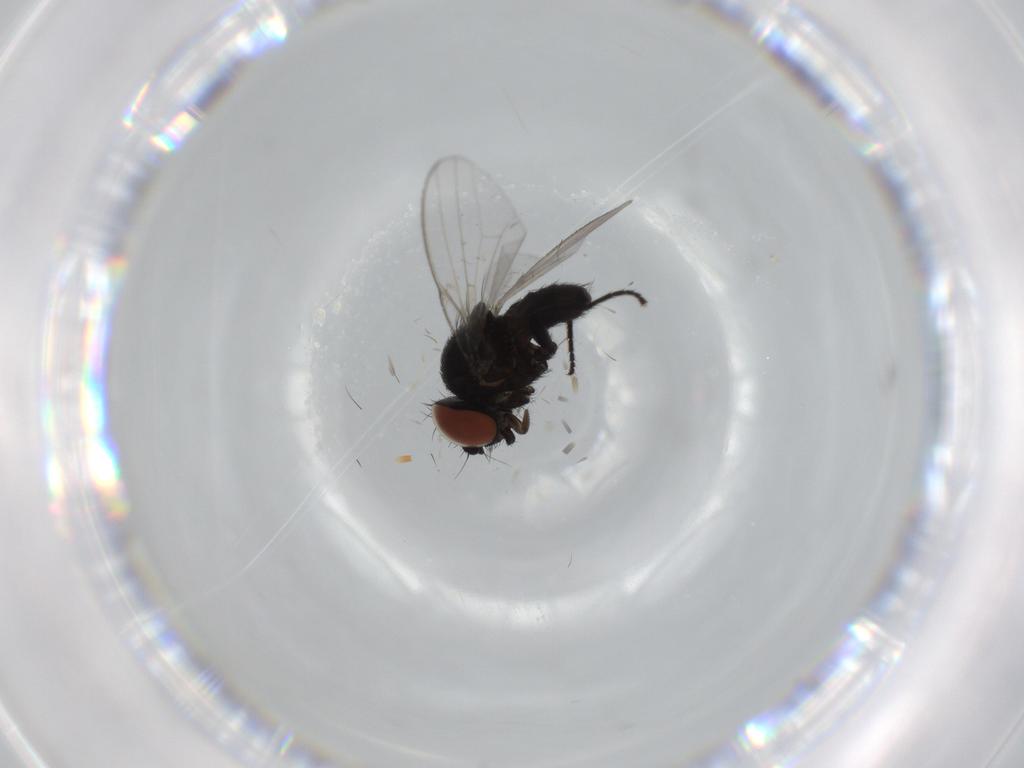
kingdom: Animalia
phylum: Arthropoda
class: Insecta
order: Diptera
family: Milichiidae
